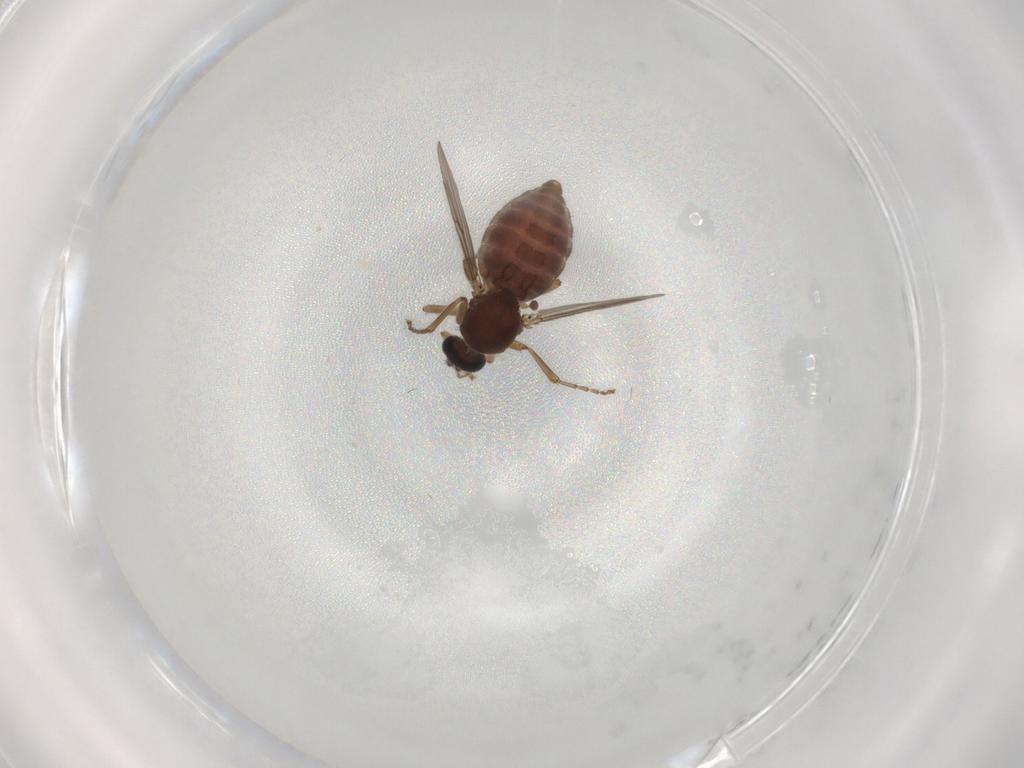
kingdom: Animalia
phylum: Arthropoda
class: Insecta
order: Diptera
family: Ceratopogonidae
